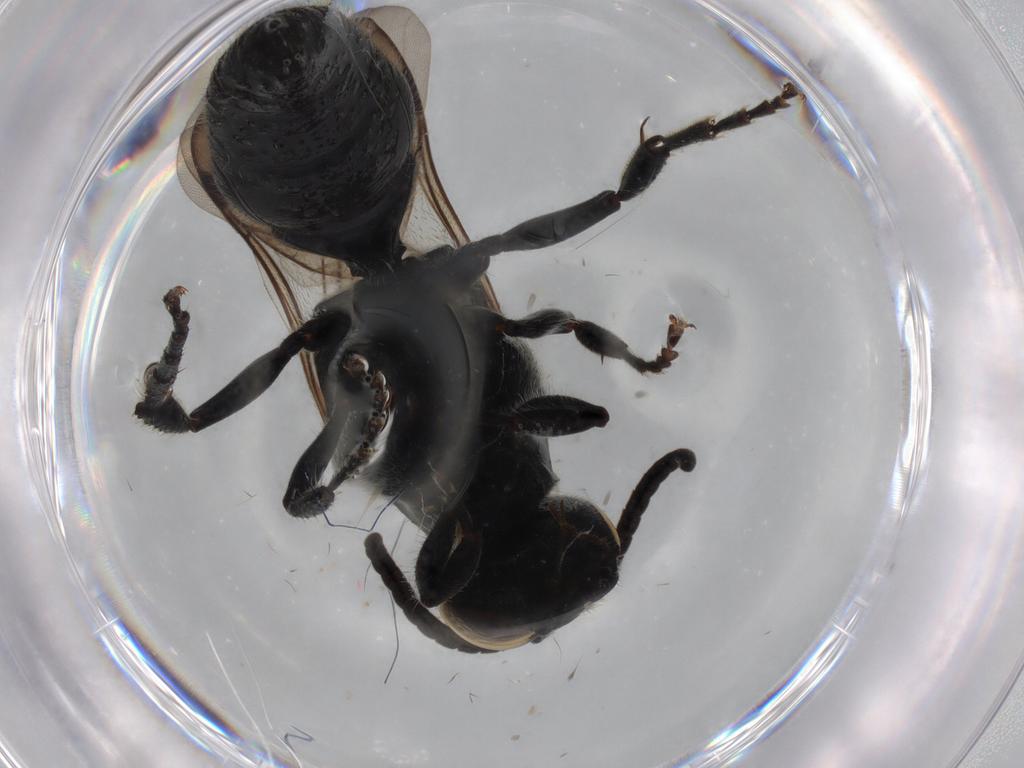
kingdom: Animalia
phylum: Arthropoda
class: Insecta
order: Hymenoptera
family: Tiphiidae
